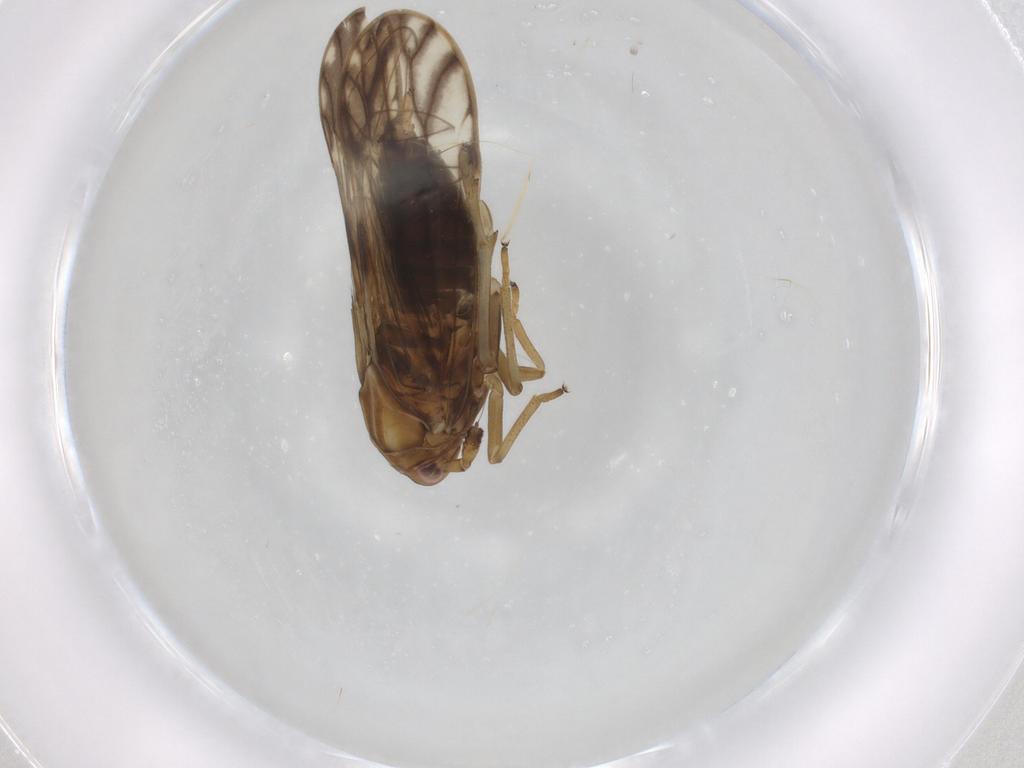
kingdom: Animalia
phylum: Arthropoda
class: Insecta
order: Hemiptera
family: Delphacidae
